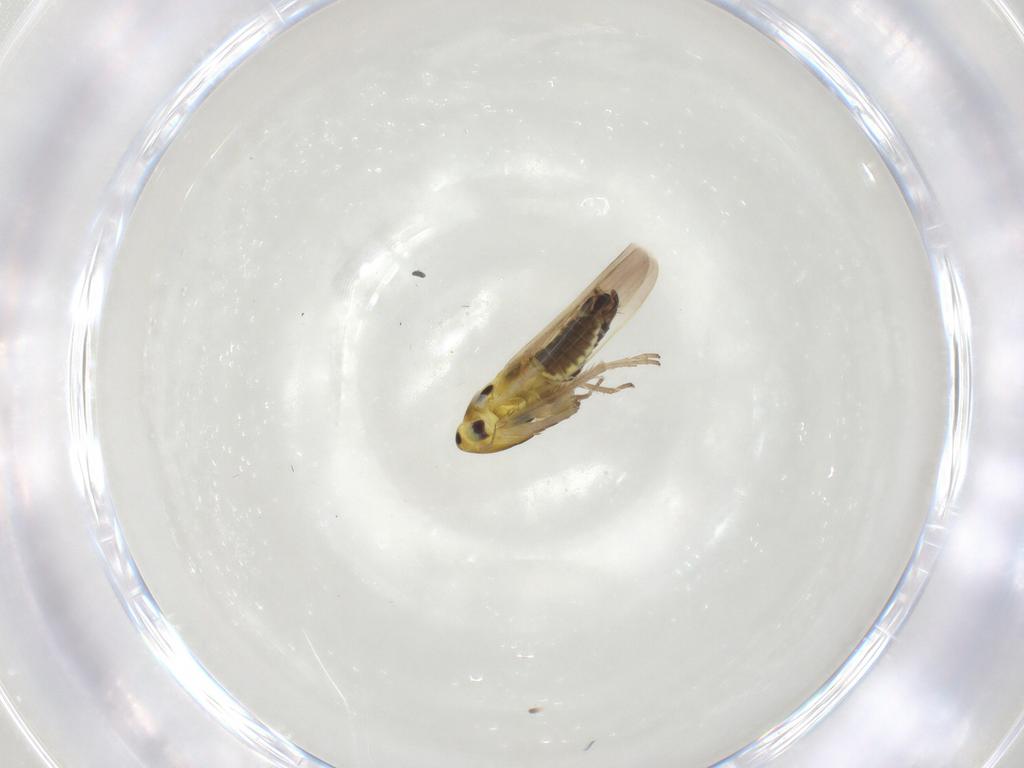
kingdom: Animalia
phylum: Arthropoda
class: Insecta
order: Hemiptera
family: Cicadellidae
